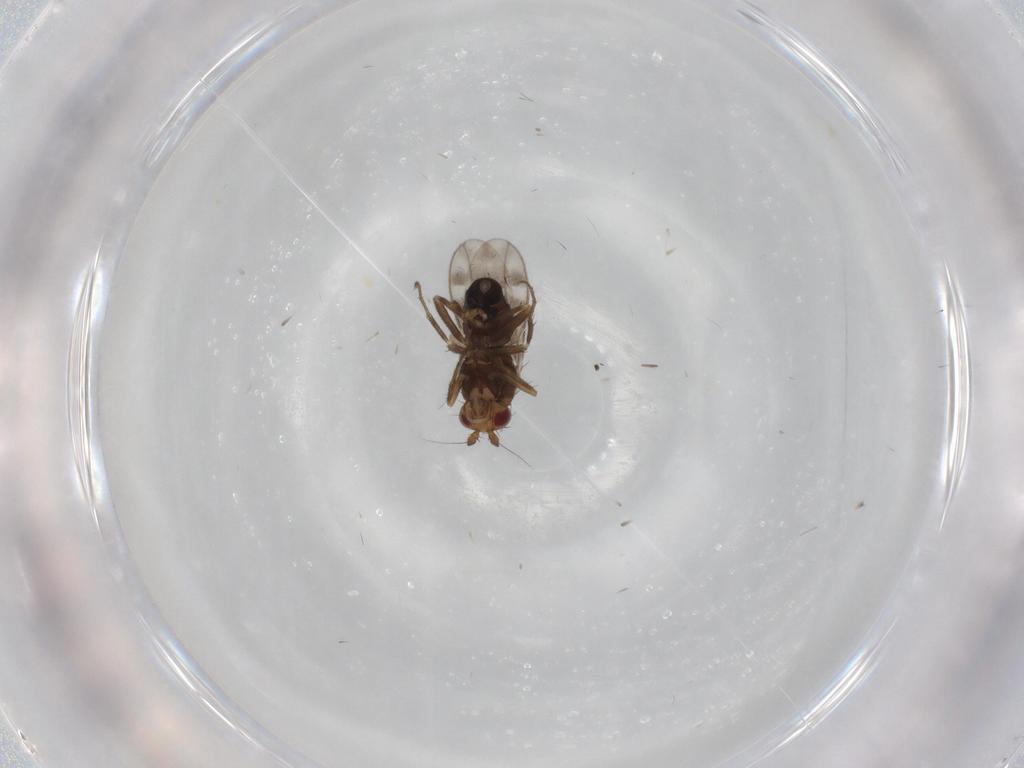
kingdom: Animalia
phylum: Arthropoda
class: Insecta
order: Diptera
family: Sphaeroceridae
